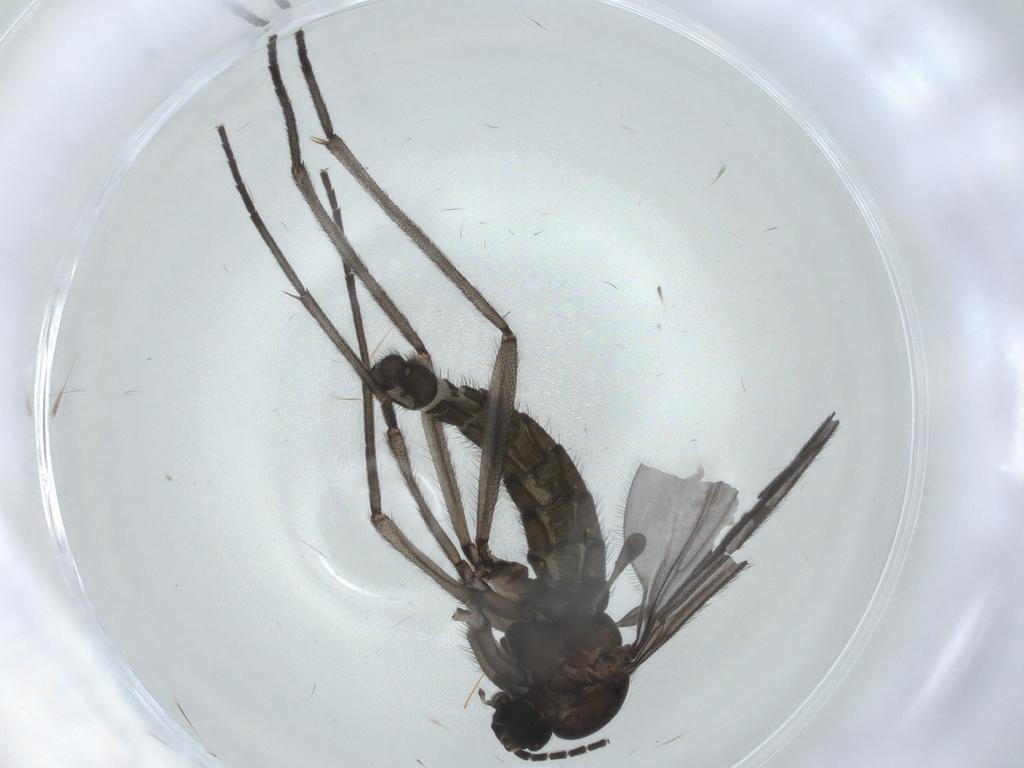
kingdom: Animalia
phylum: Arthropoda
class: Insecta
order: Diptera
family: Sciaridae
